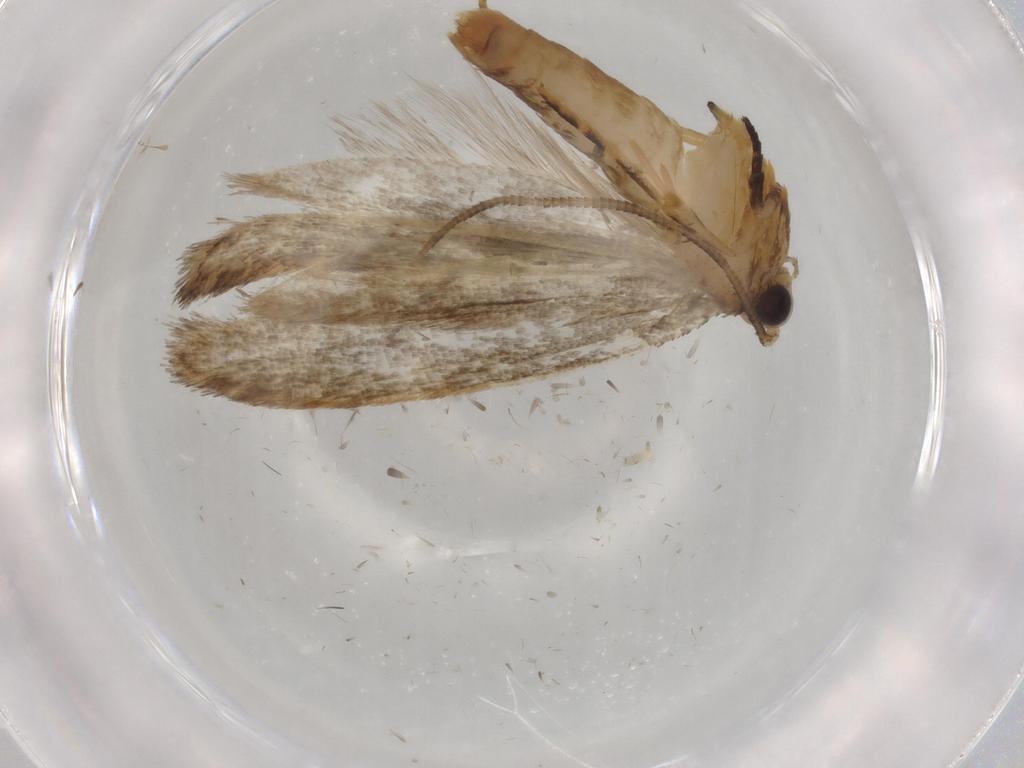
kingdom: Animalia
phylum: Arthropoda
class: Insecta
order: Lepidoptera
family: Tineidae
